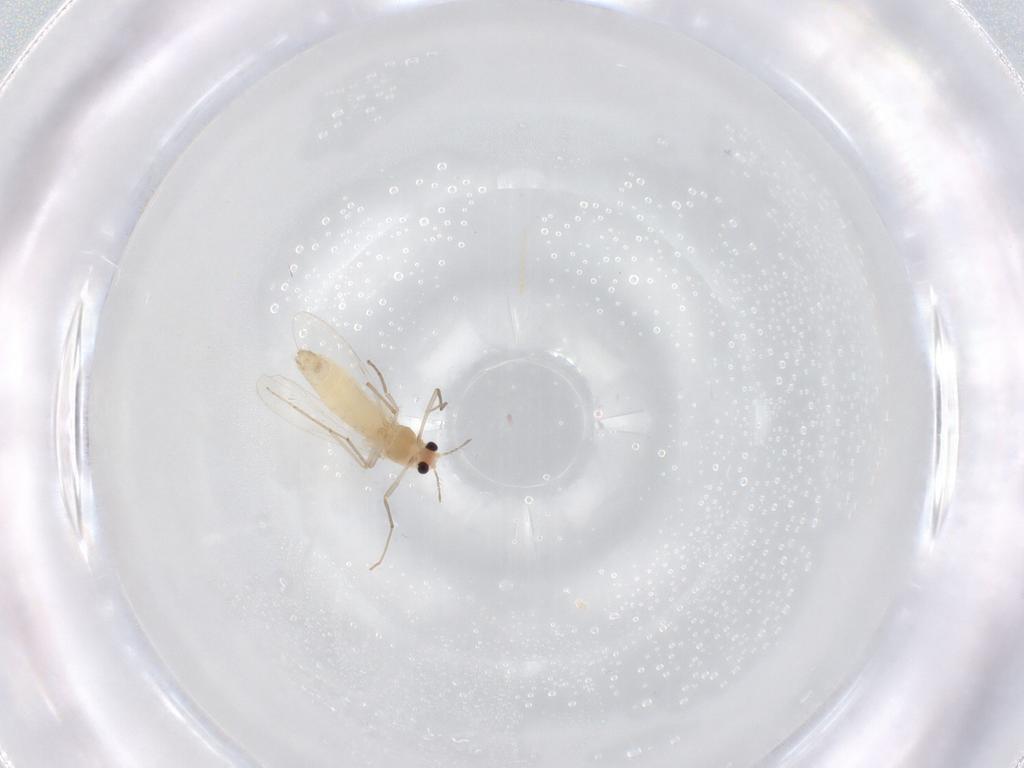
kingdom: Animalia
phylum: Arthropoda
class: Insecta
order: Diptera
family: Chironomidae
